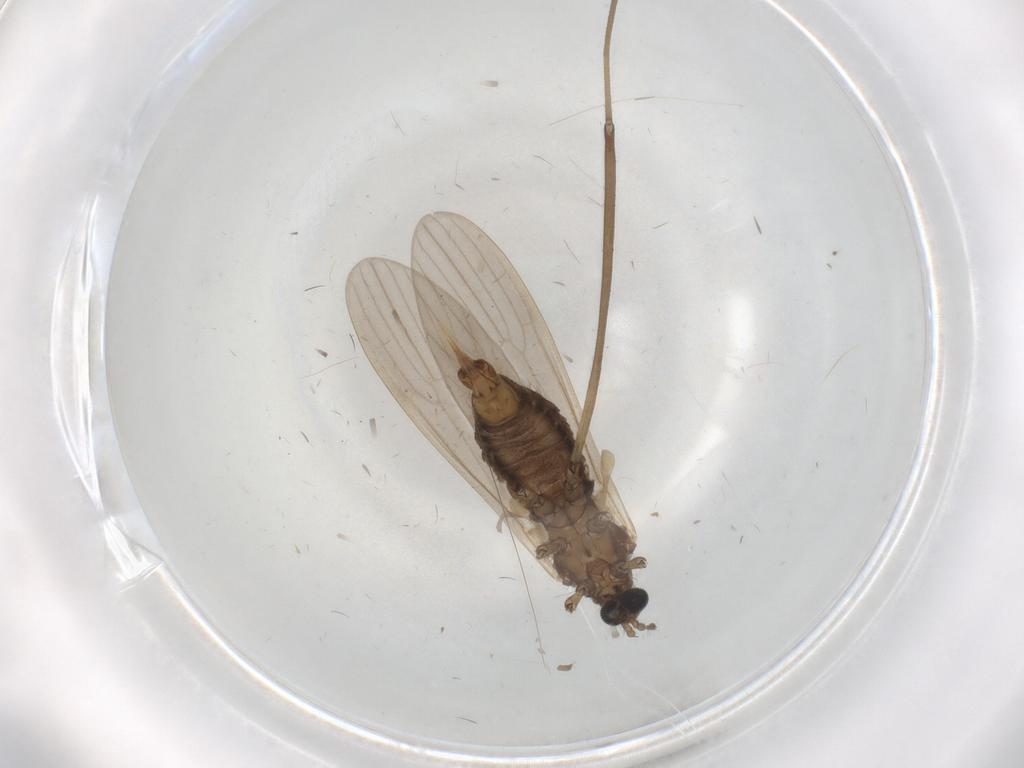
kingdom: Animalia
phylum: Arthropoda
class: Insecta
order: Diptera
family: Limoniidae
